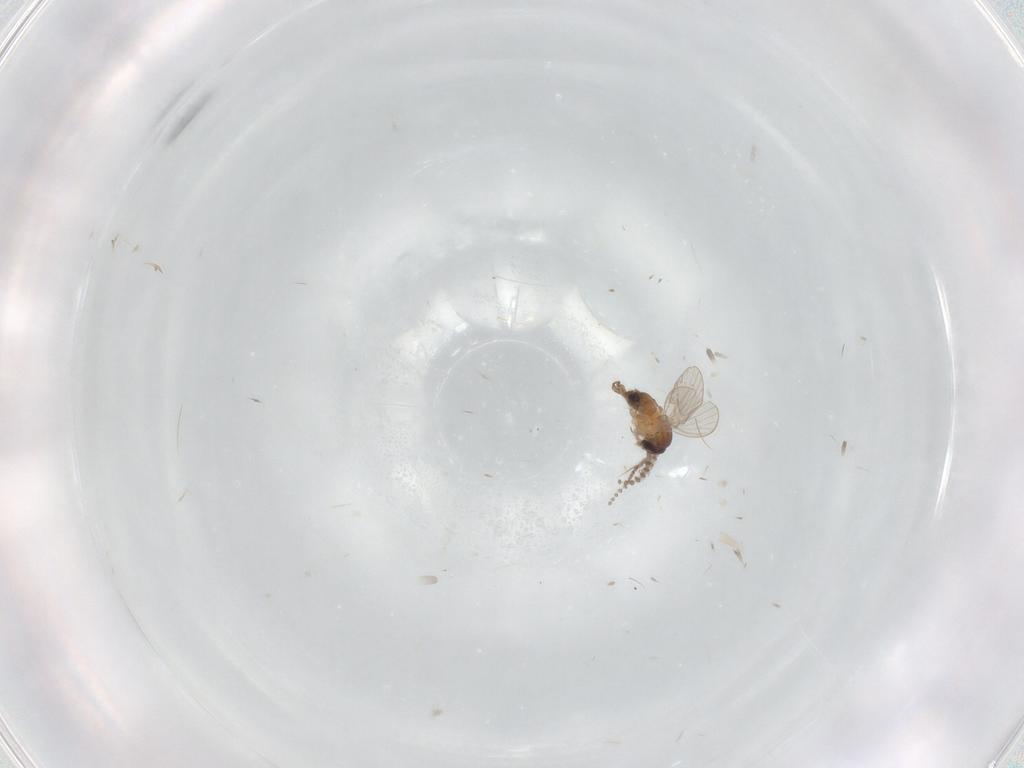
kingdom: Animalia
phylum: Arthropoda
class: Insecta
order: Diptera
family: Psychodidae
